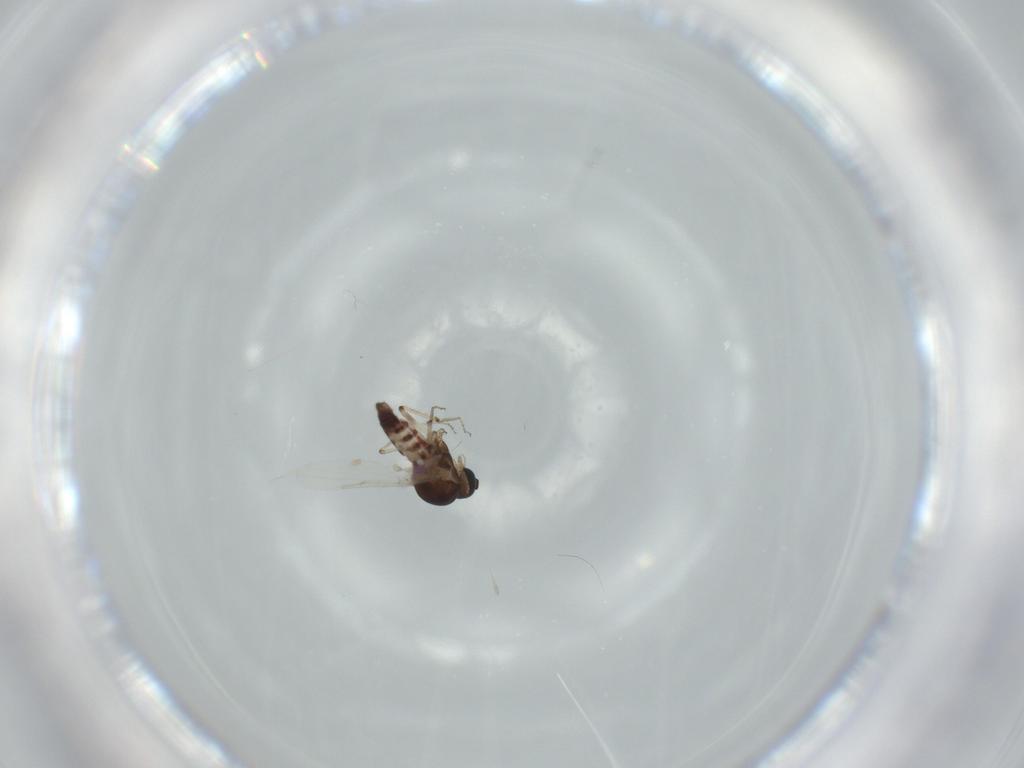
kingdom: Animalia
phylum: Arthropoda
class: Insecta
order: Diptera
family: Ceratopogonidae
